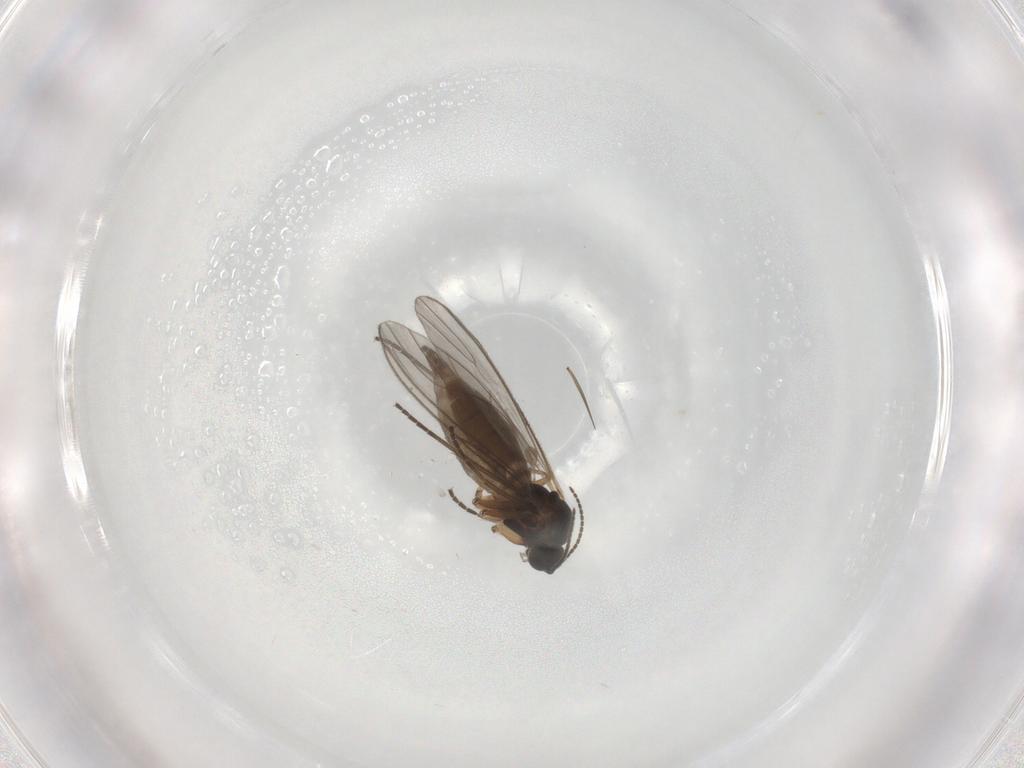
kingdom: Animalia
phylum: Arthropoda
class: Insecta
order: Diptera
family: Sciaridae
